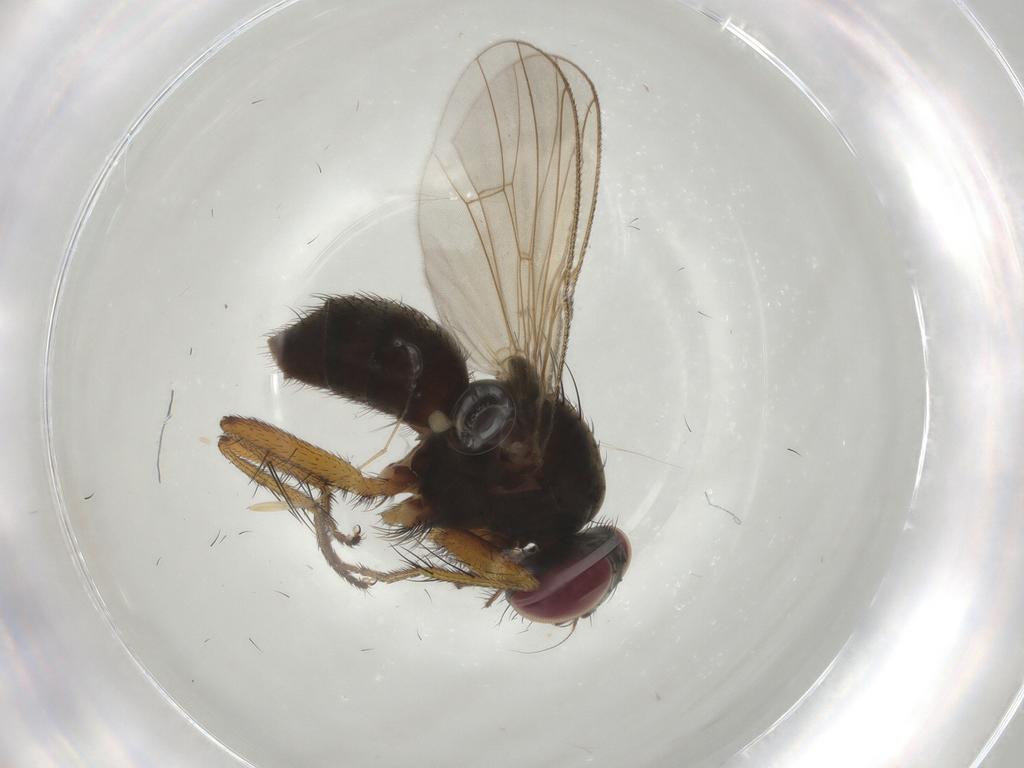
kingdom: Animalia
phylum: Arthropoda
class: Insecta
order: Diptera
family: Muscidae
